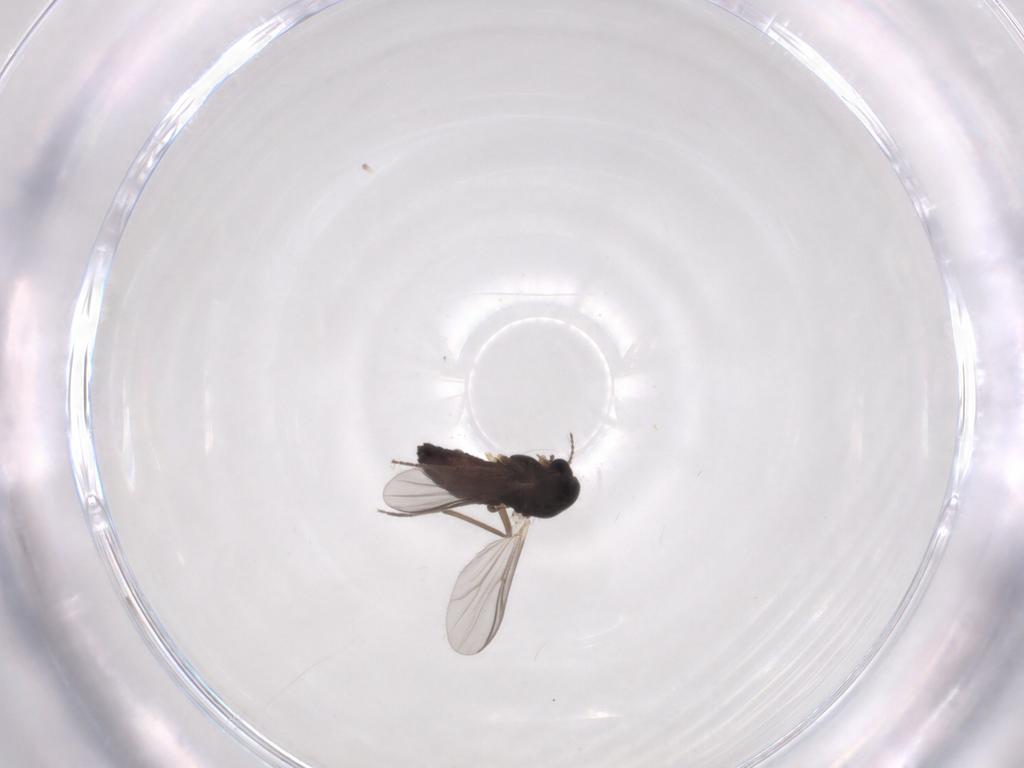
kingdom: Animalia
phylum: Arthropoda
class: Insecta
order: Diptera
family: Chironomidae
